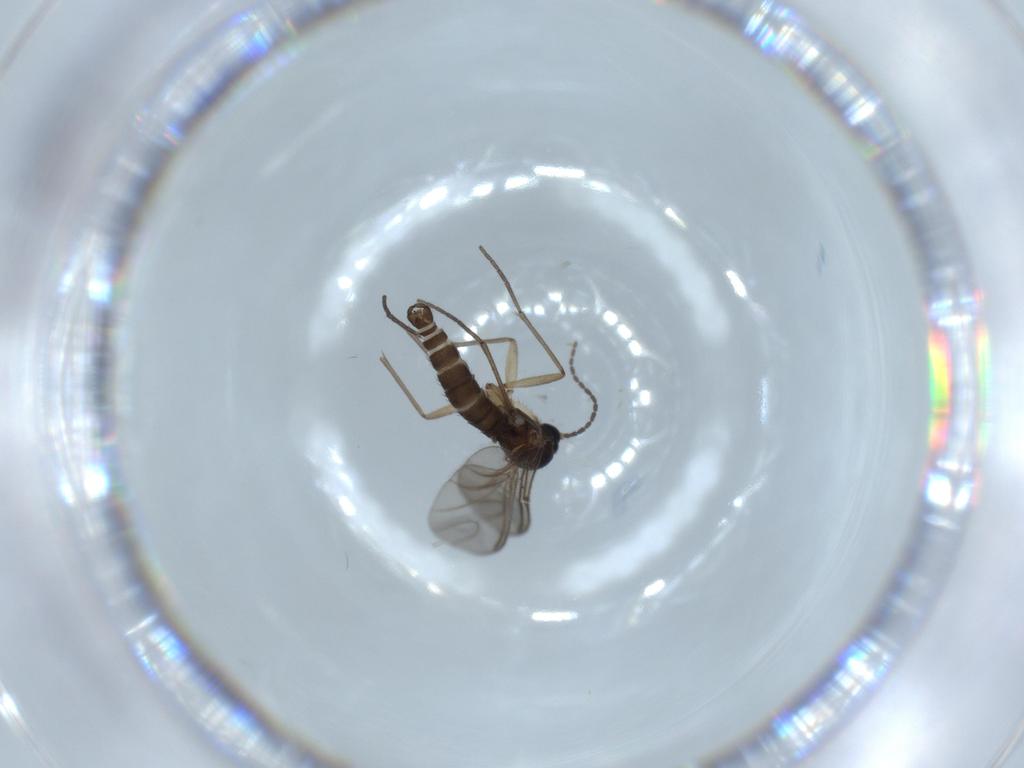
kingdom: Animalia
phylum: Arthropoda
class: Insecta
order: Diptera
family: Sciaridae
